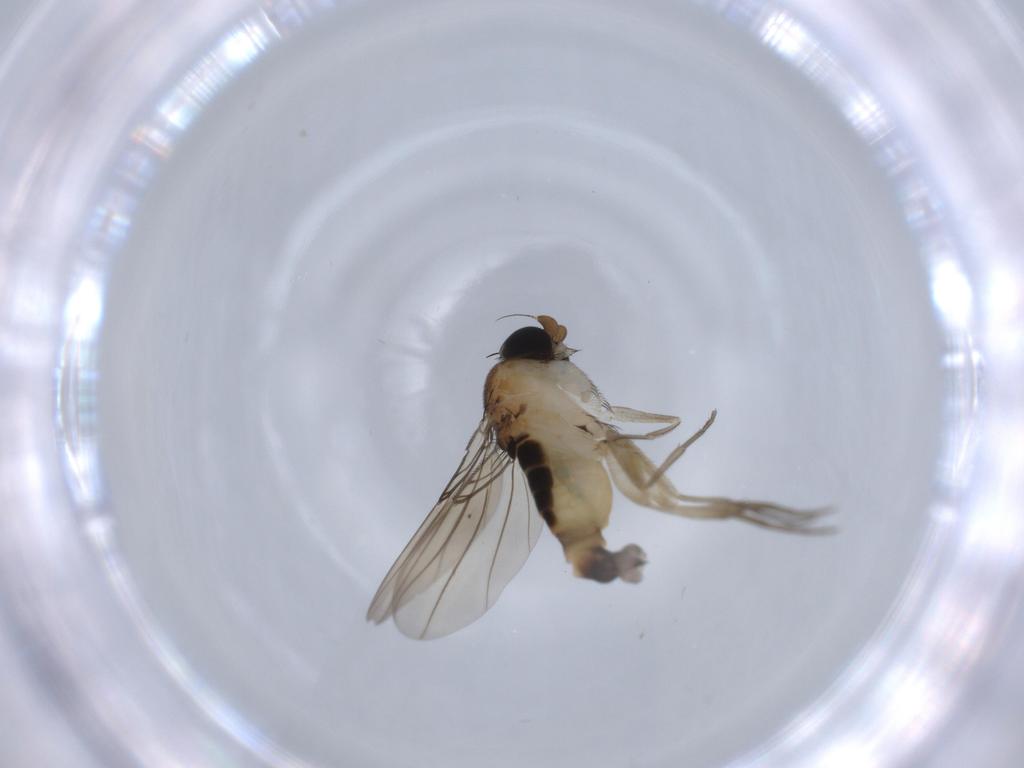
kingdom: Animalia
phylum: Arthropoda
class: Insecta
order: Diptera
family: Phoridae
